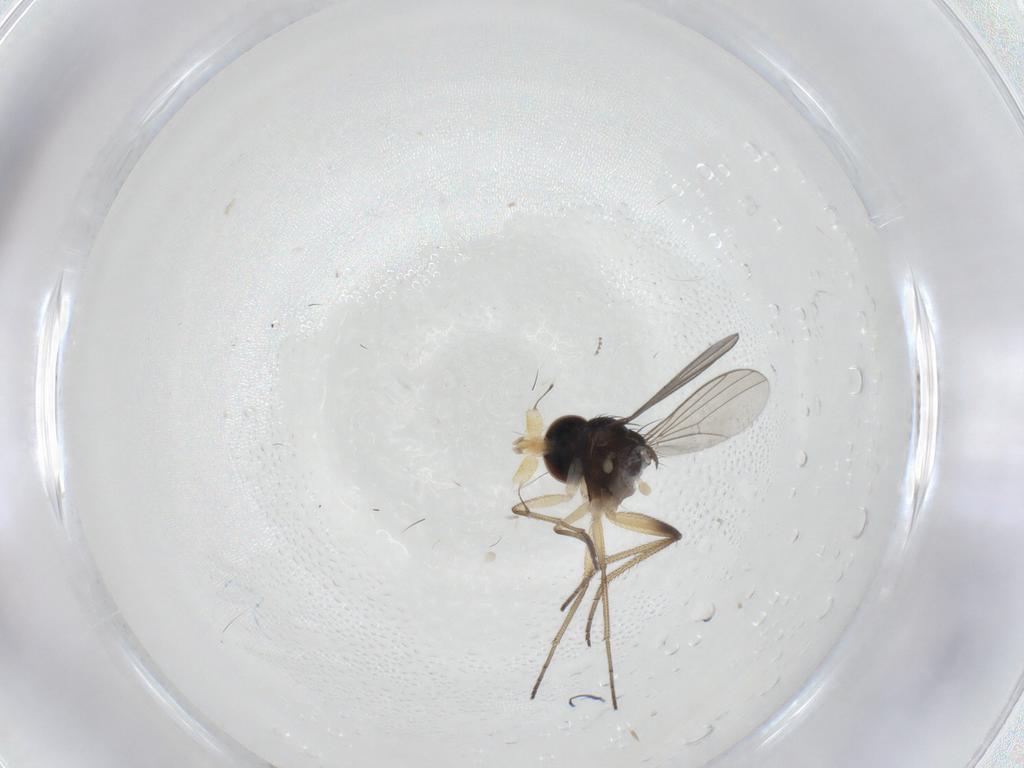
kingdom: Animalia
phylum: Arthropoda
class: Insecta
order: Diptera
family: Dolichopodidae
